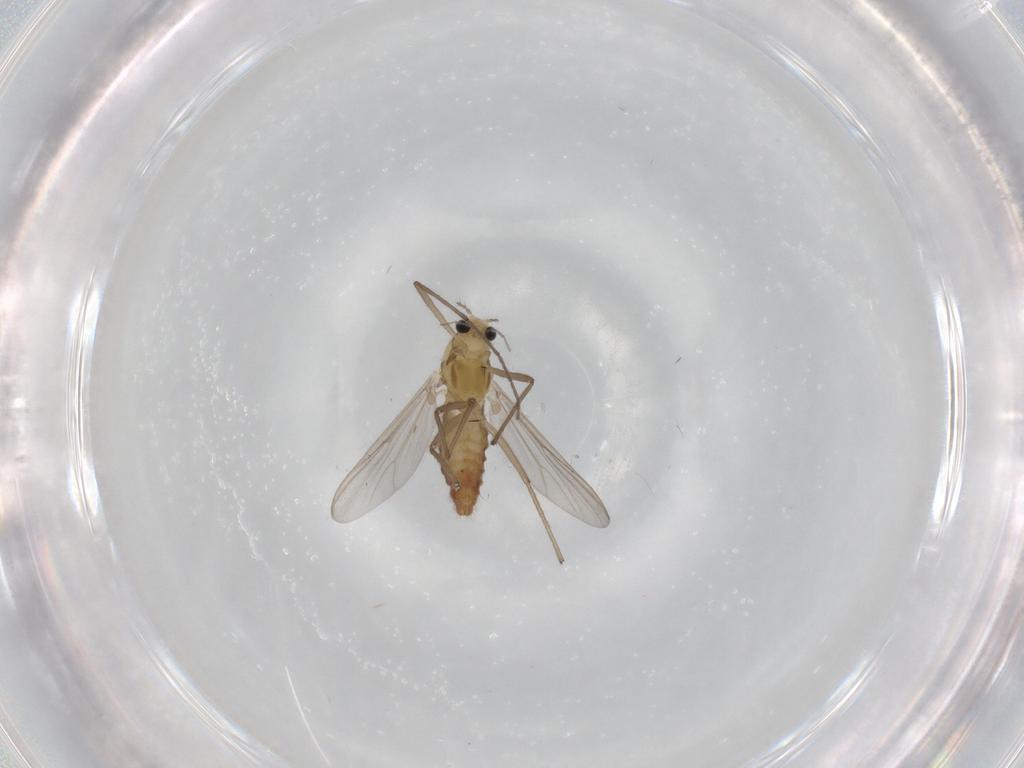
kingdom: Animalia
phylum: Arthropoda
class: Insecta
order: Diptera
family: Chironomidae
